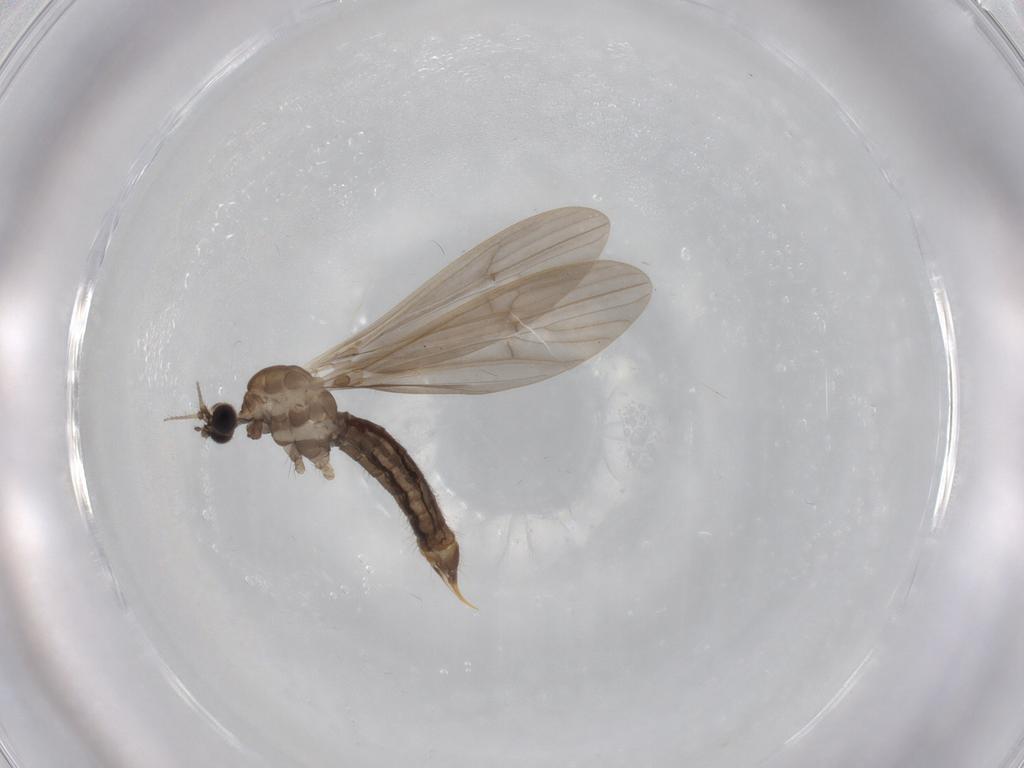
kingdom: Animalia
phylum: Arthropoda
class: Insecta
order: Diptera
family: Limoniidae
